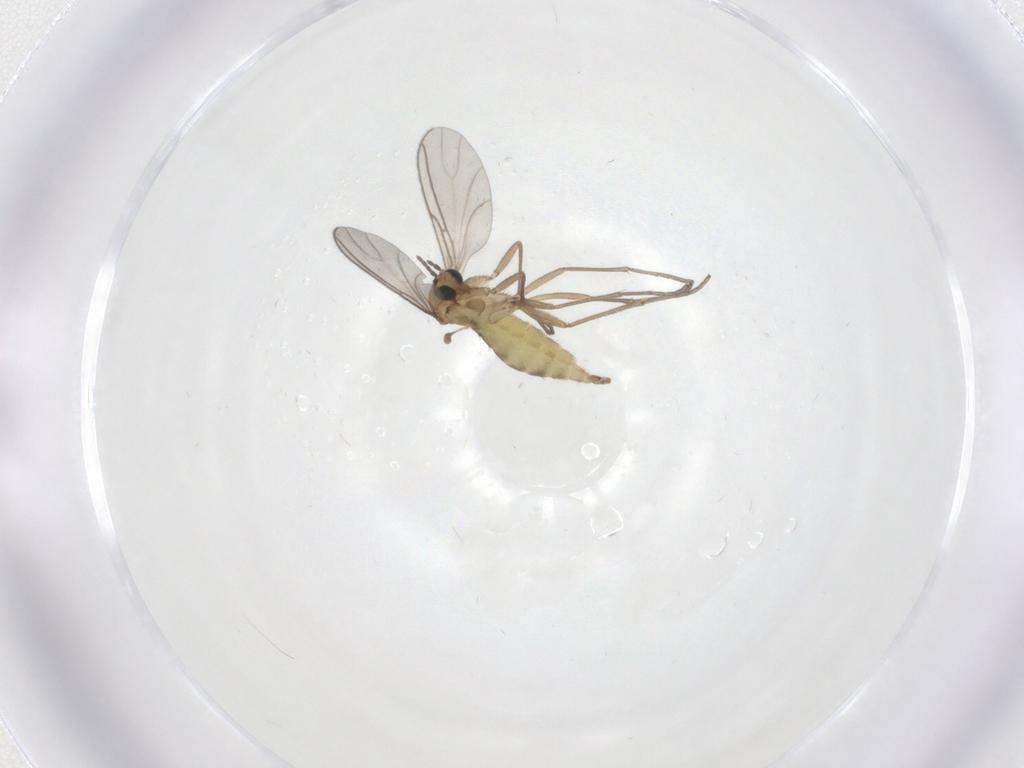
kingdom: Animalia
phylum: Arthropoda
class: Insecta
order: Diptera
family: Sciaridae
